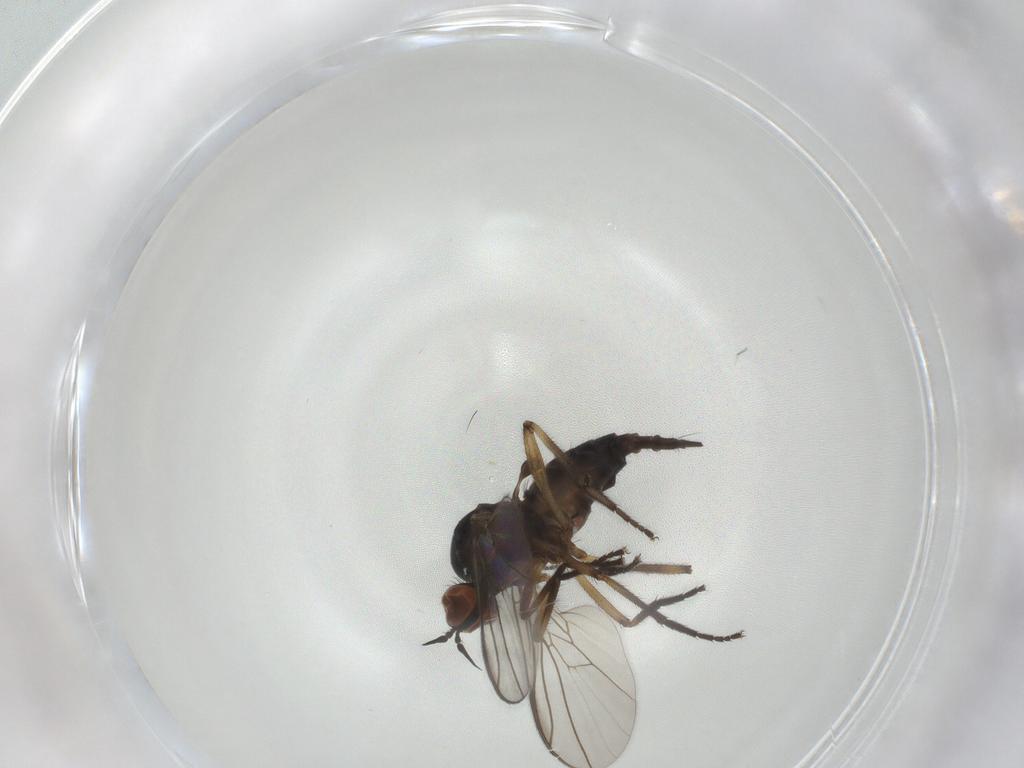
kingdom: Animalia
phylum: Arthropoda
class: Insecta
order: Diptera
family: Empididae
